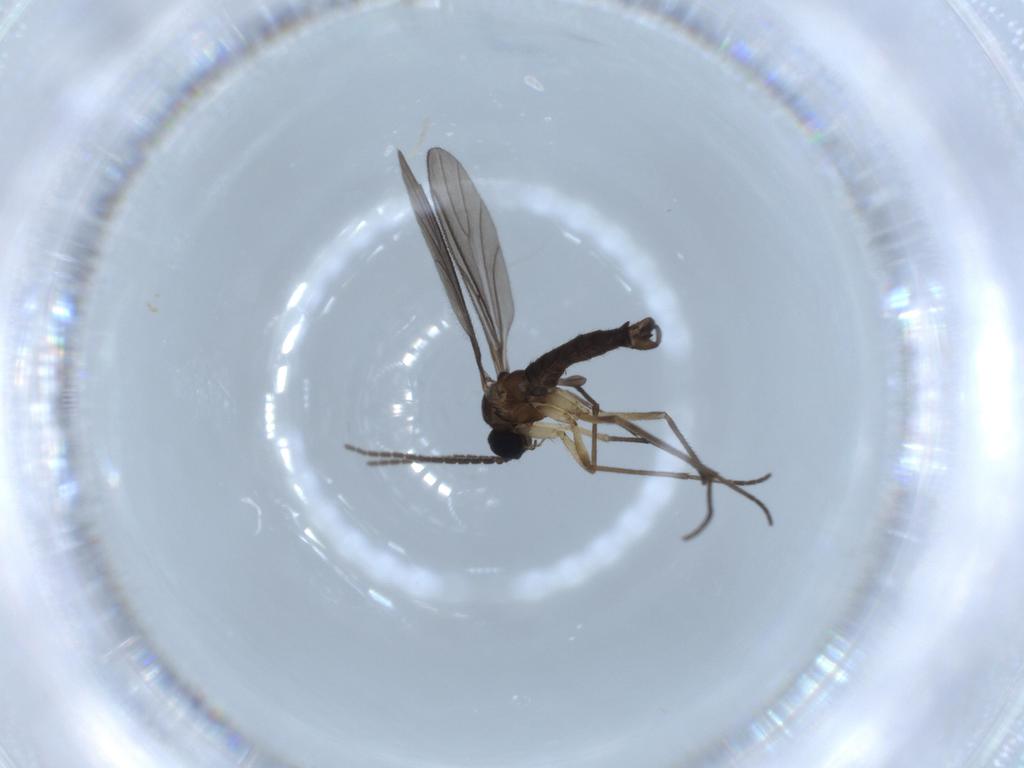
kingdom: Animalia
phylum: Arthropoda
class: Insecta
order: Diptera
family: Sciaridae
